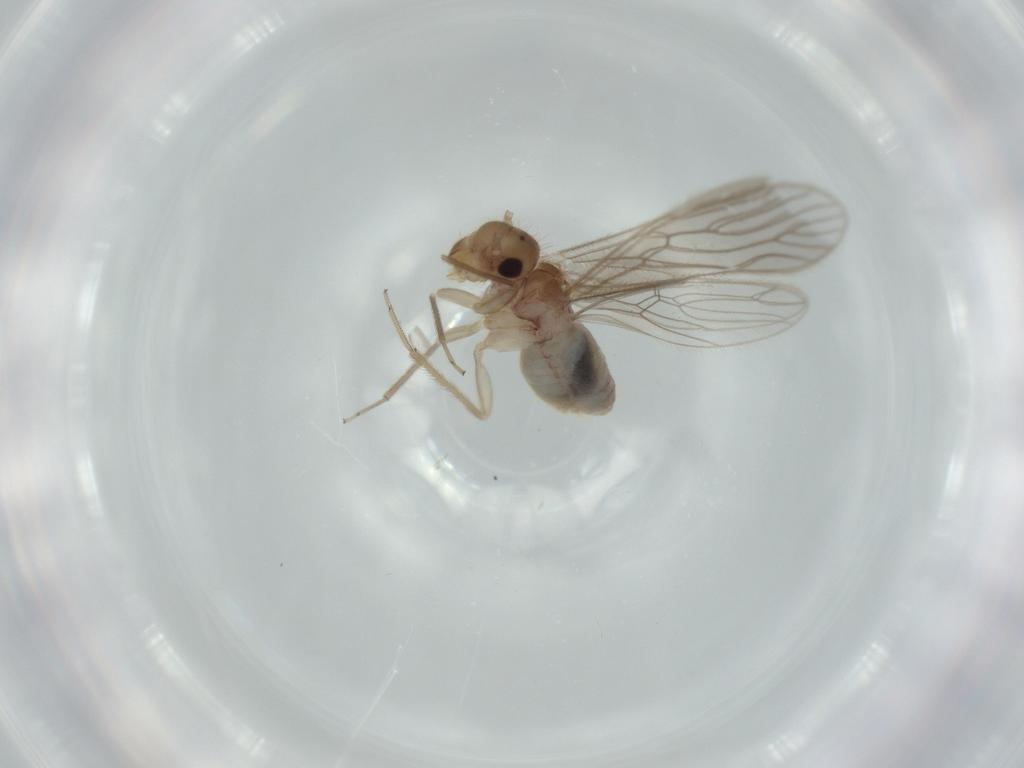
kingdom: Animalia
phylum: Arthropoda
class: Insecta
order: Psocodea
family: Cladiopsocidae
